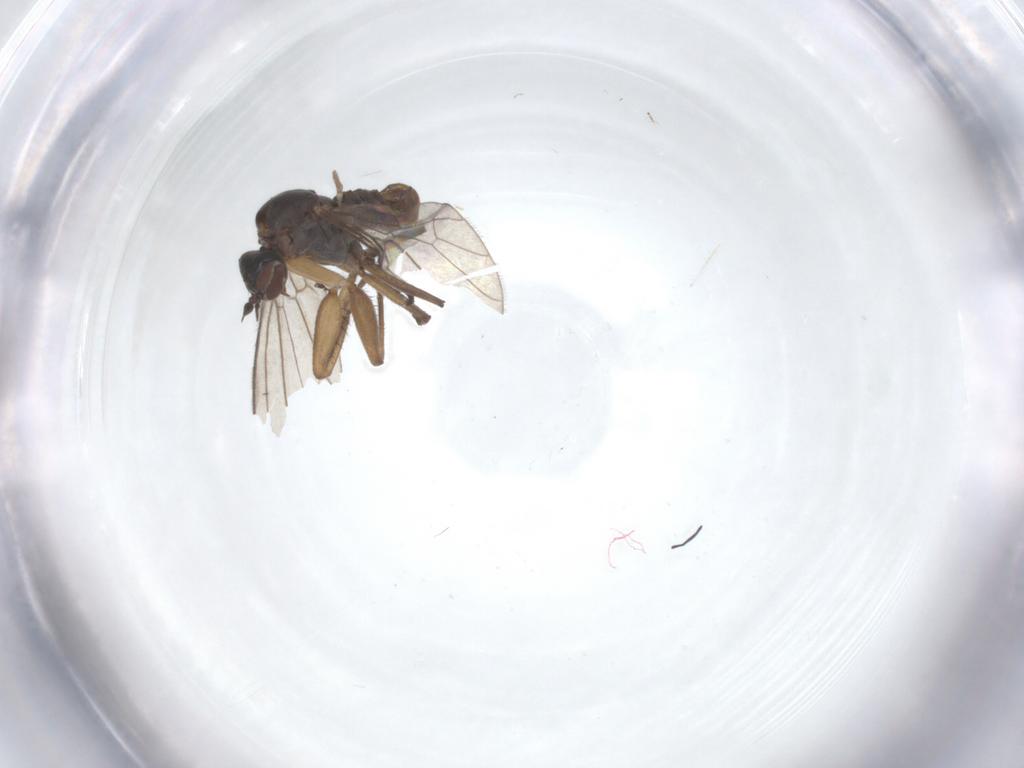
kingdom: Animalia
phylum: Arthropoda
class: Insecta
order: Diptera
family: Empididae
